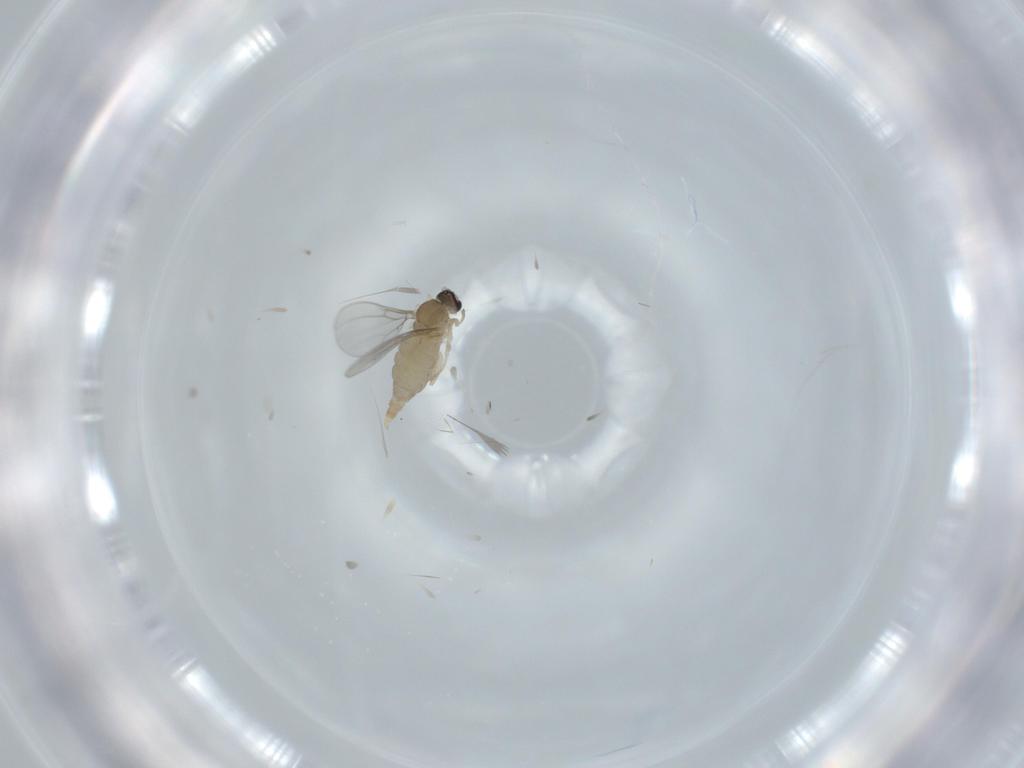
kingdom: Animalia
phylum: Arthropoda
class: Insecta
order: Diptera
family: Cecidomyiidae
